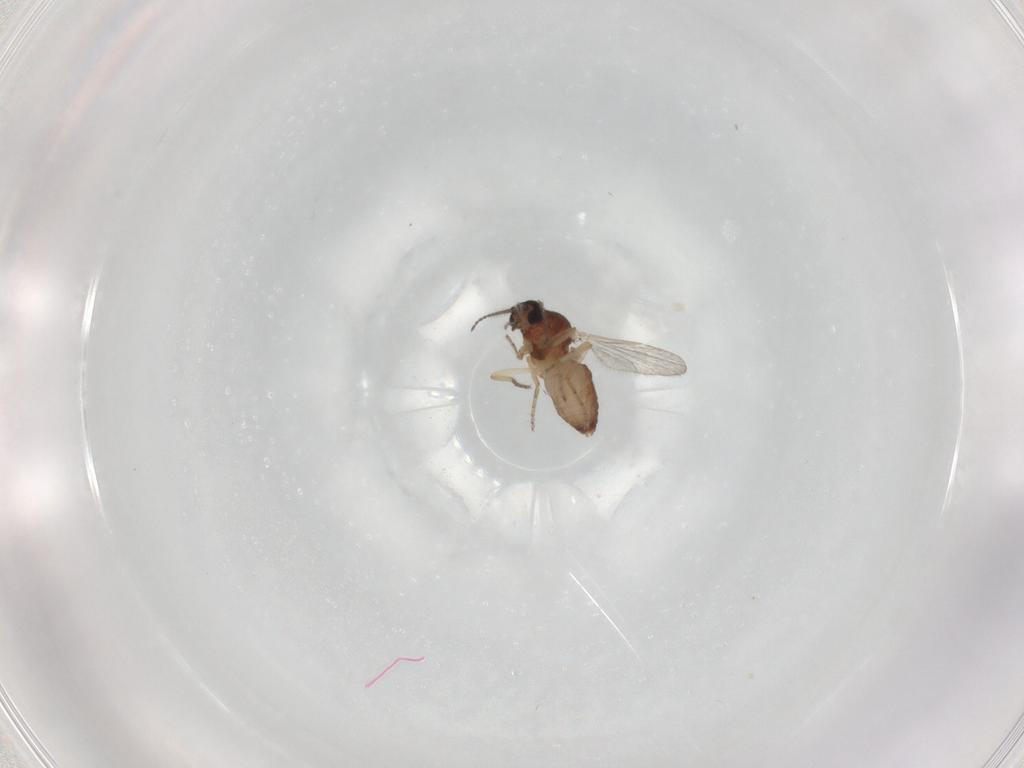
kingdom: Animalia
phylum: Arthropoda
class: Insecta
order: Diptera
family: Ceratopogonidae
